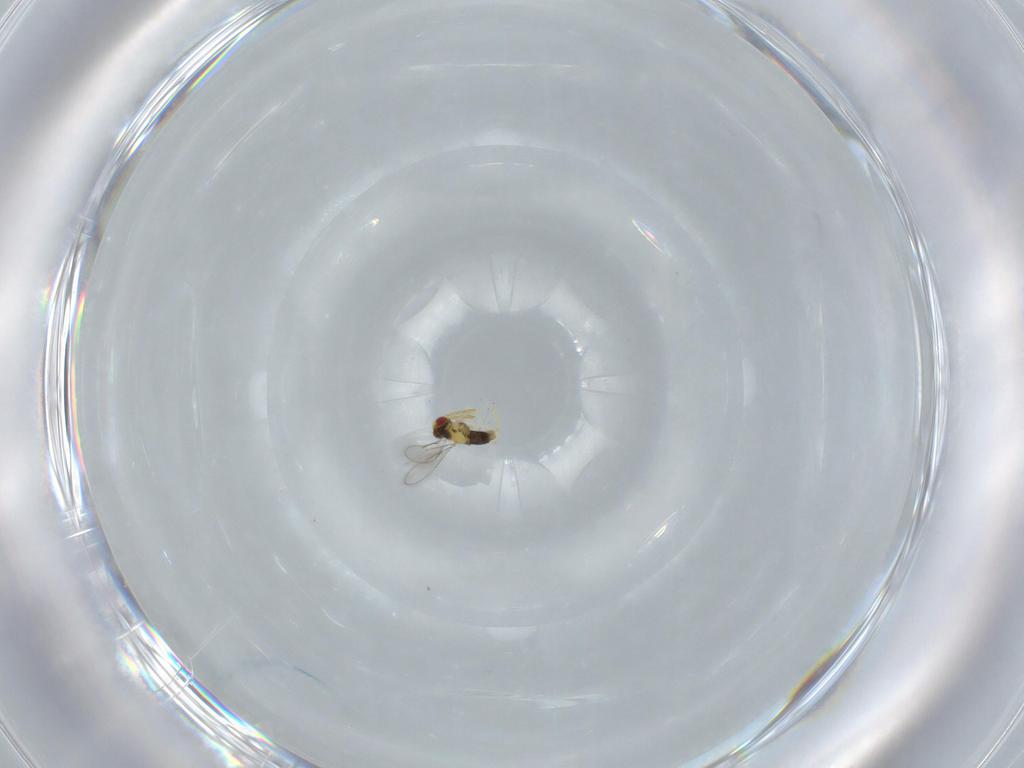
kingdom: Animalia
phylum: Arthropoda
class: Insecta
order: Hymenoptera
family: Aphelinidae
